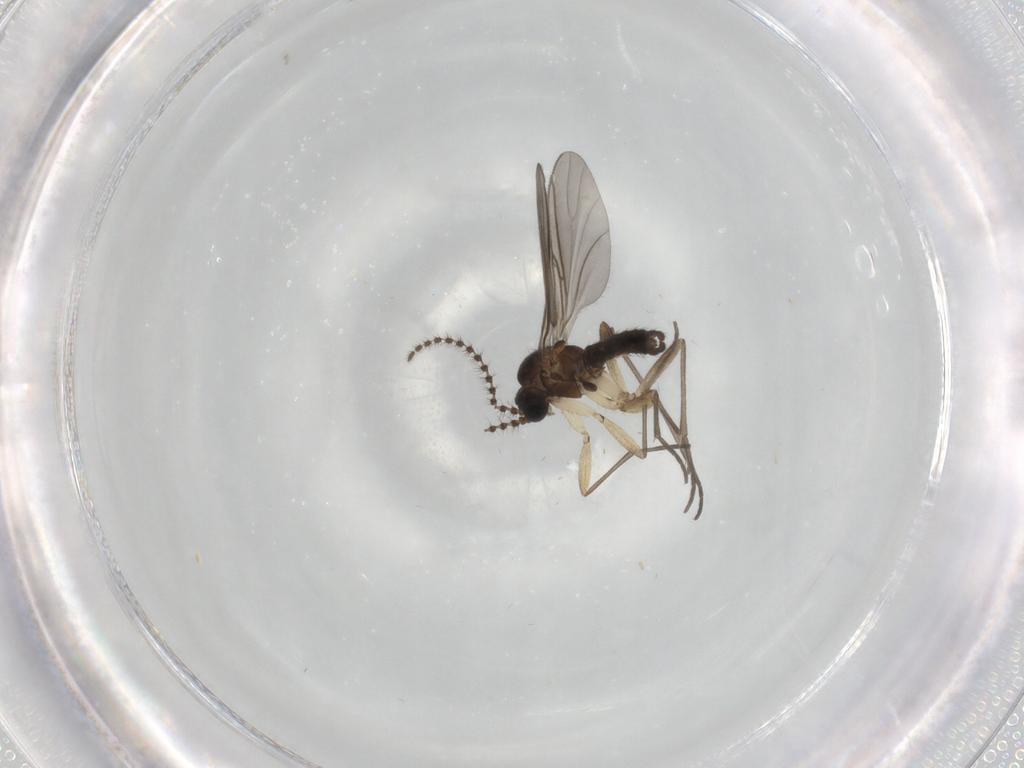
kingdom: Animalia
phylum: Arthropoda
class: Insecta
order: Diptera
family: Sciaridae
